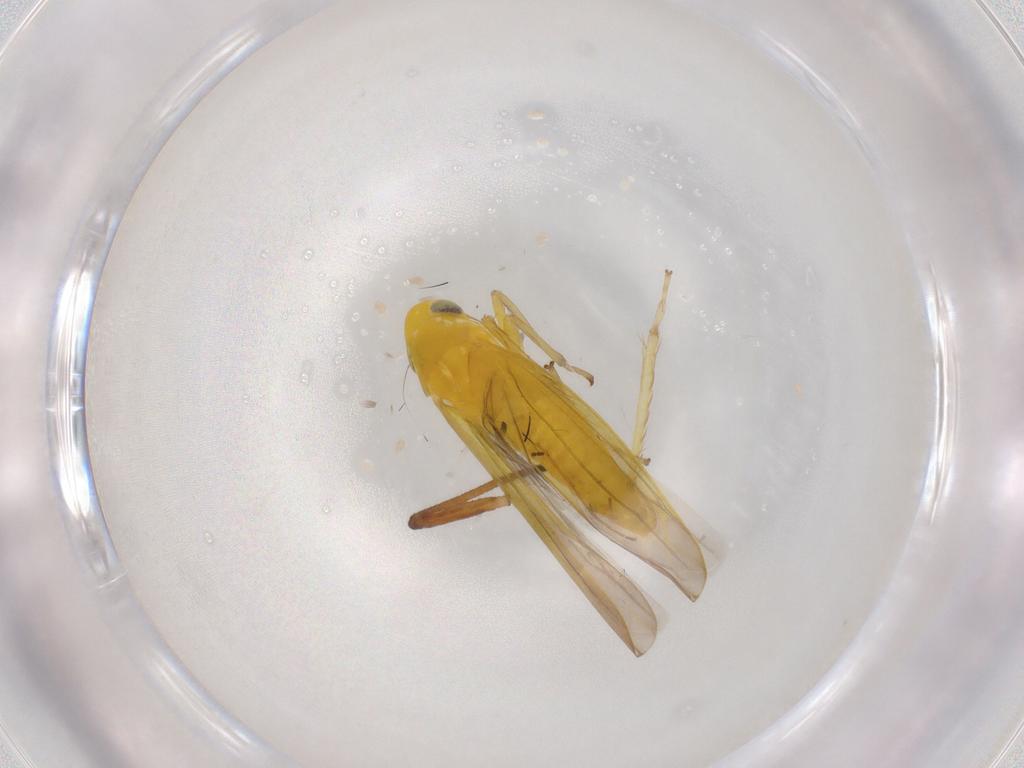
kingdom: Animalia
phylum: Arthropoda
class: Insecta
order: Hemiptera
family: Aphididae
